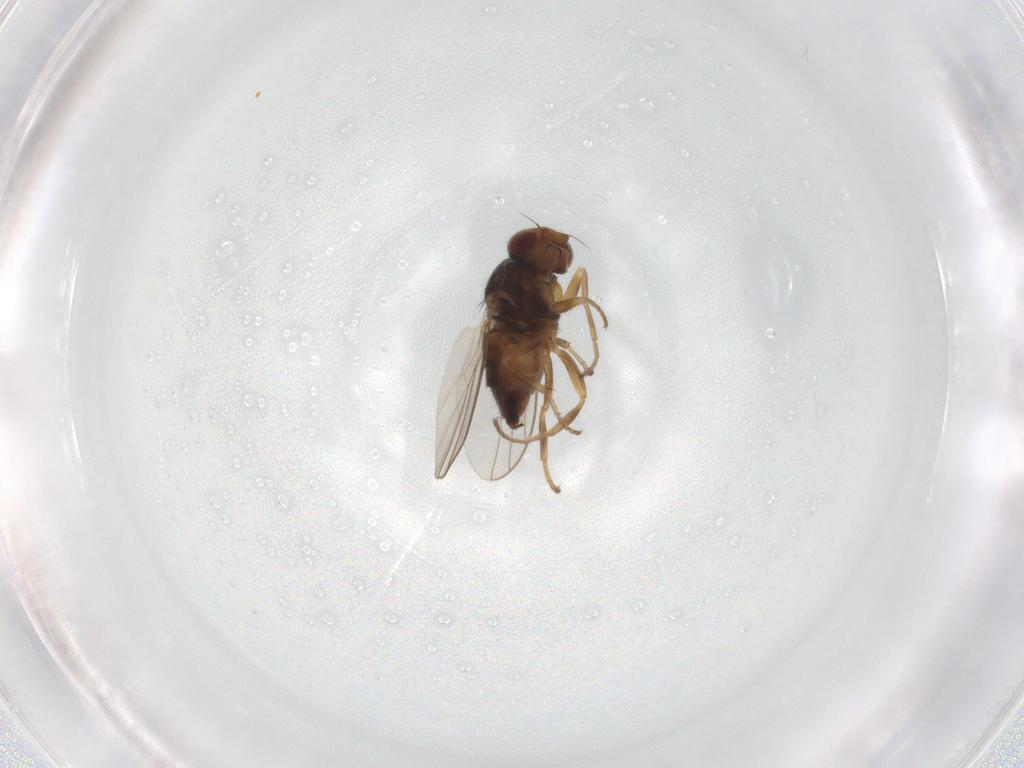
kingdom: Animalia
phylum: Arthropoda
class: Insecta
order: Diptera
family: Chloropidae
